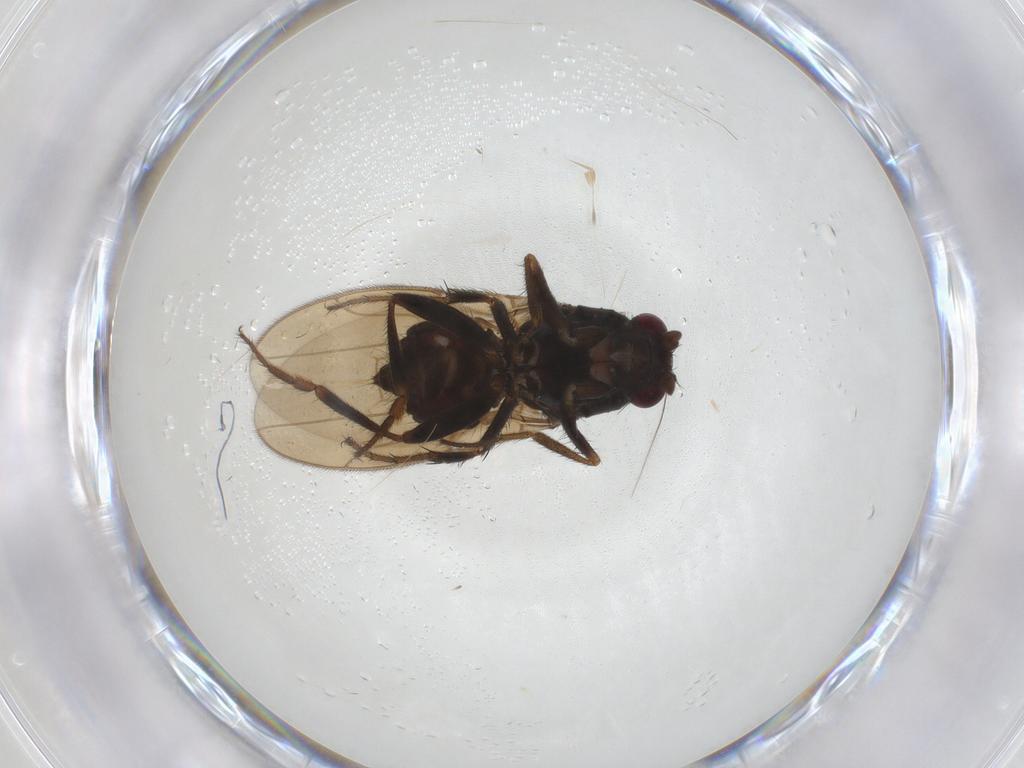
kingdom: Animalia
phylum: Arthropoda
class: Insecta
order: Diptera
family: Sphaeroceridae
